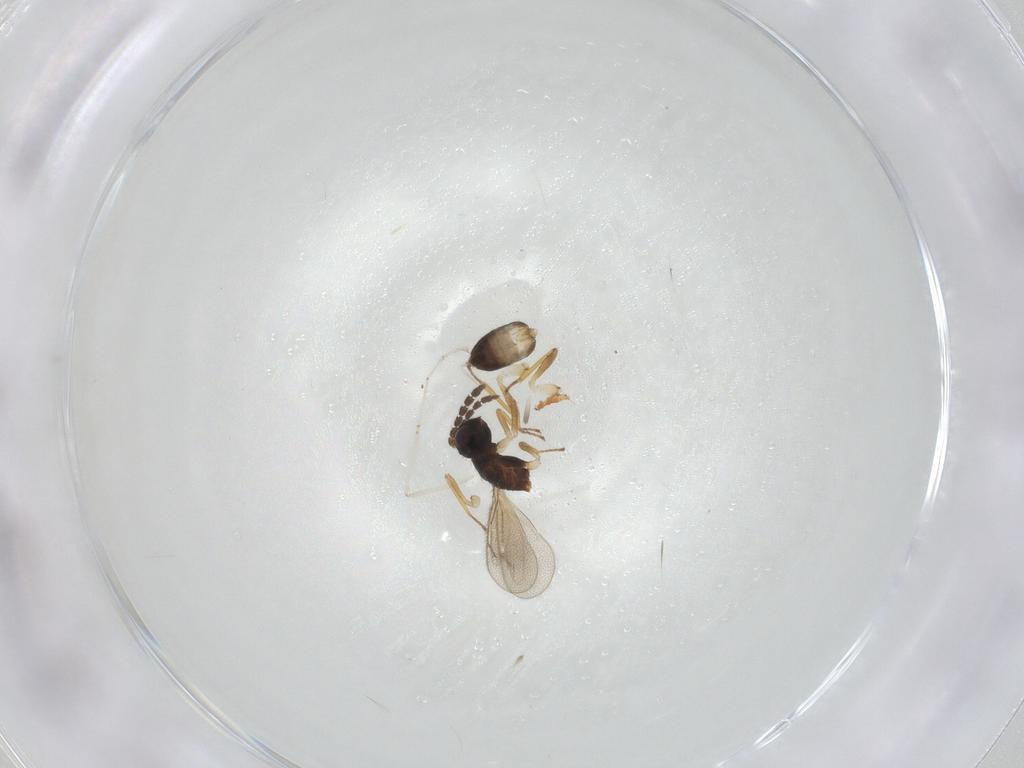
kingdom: Animalia
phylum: Arthropoda
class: Insecta
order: Hymenoptera
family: Eulophidae
